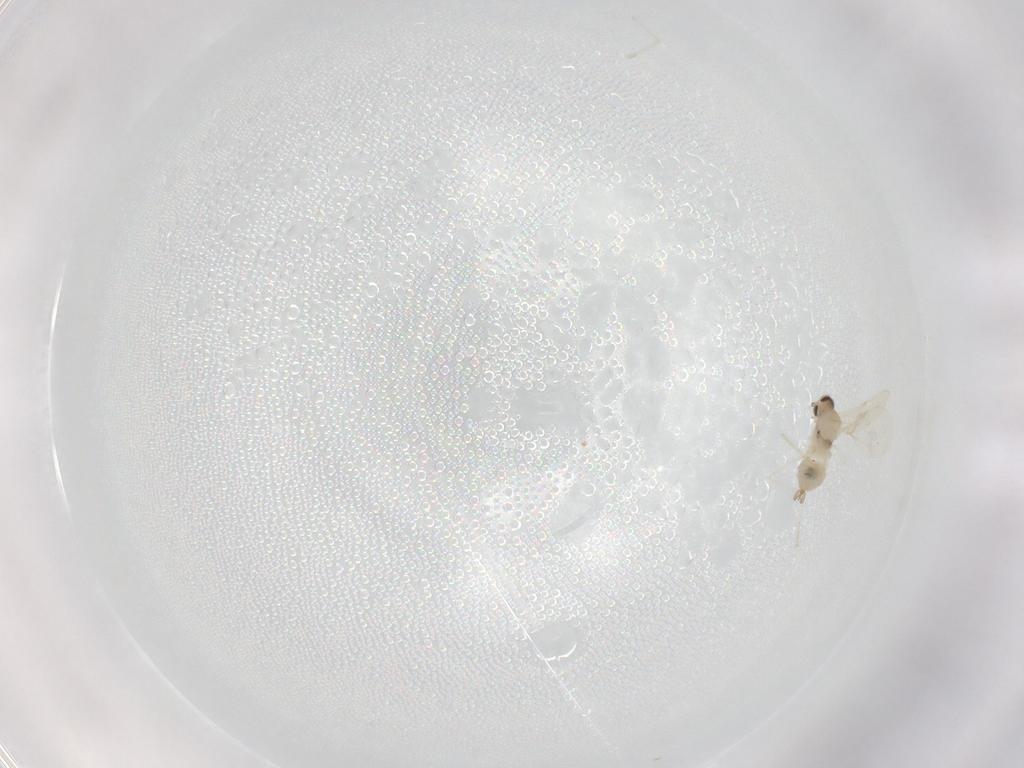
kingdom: Animalia
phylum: Arthropoda
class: Insecta
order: Diptera
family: Cecidomyiidae
